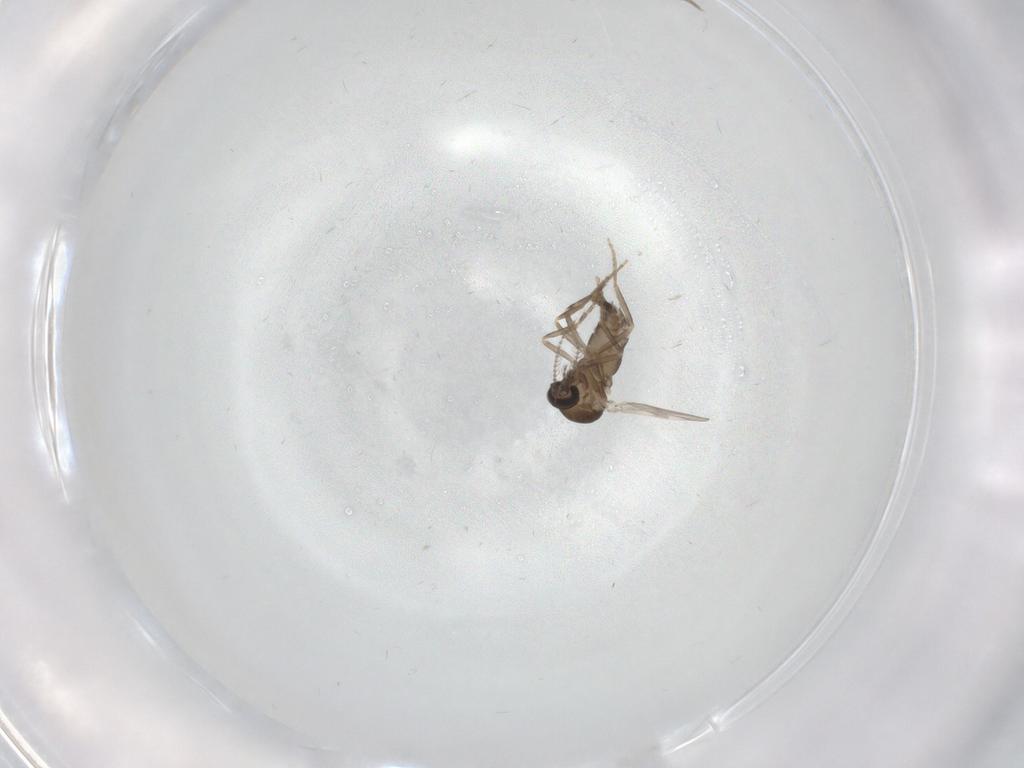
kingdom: Animalia
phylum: Arthropoda
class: Insecta
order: Diptera
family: Ceratopogonidae
